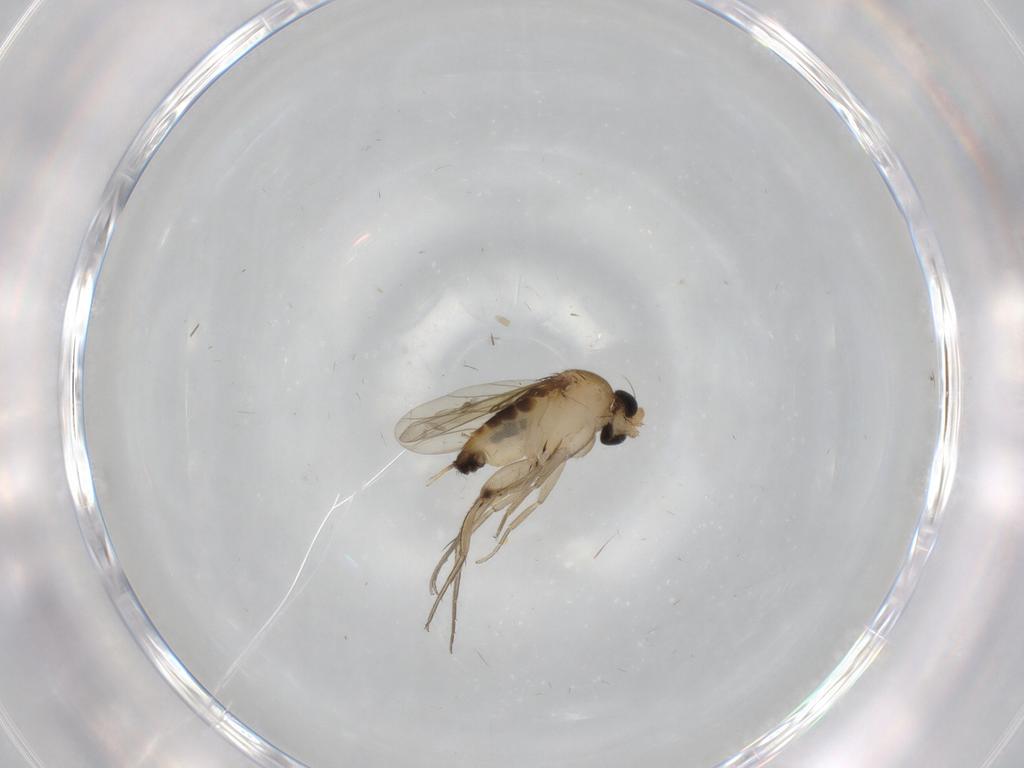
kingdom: Animalia
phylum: Arthropoda
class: Insecta
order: Diptera
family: Phoridae
